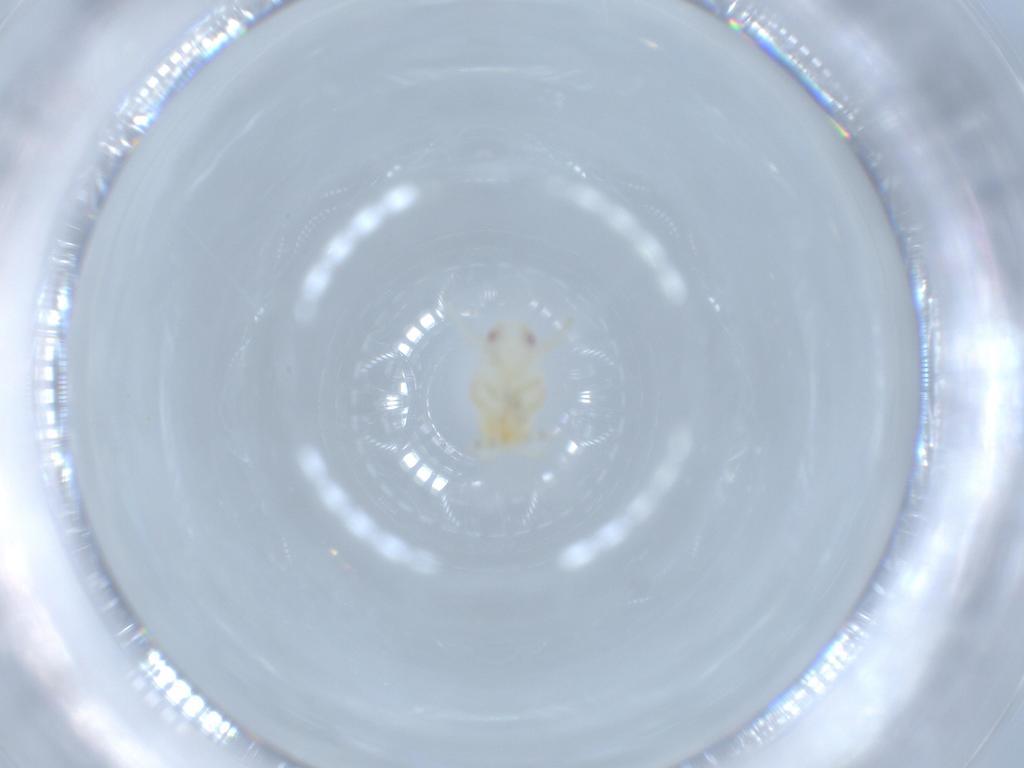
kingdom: Animalia
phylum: Arthropoda
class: Insecta
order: Hemiptera
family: Flatidae
